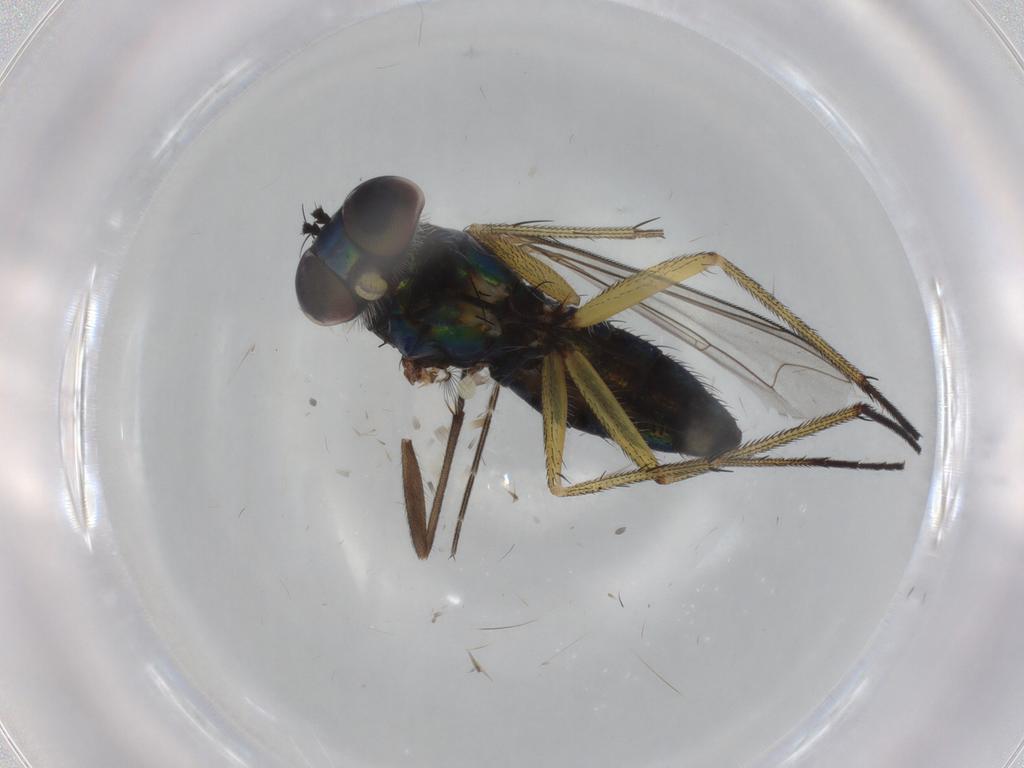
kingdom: Animalia
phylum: Arthropoda
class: Insecta
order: Diptera
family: Dolichopodidae
